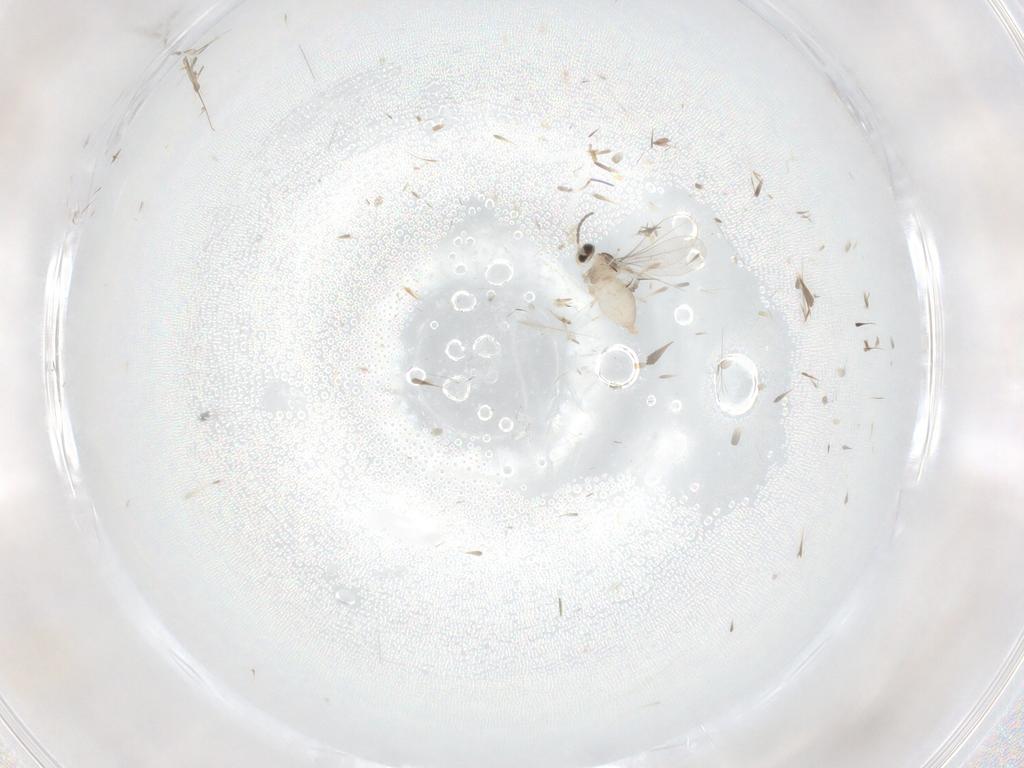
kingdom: Animalia
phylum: Arthropoda
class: Insecta
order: Diptera
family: Cecidomyiidae
